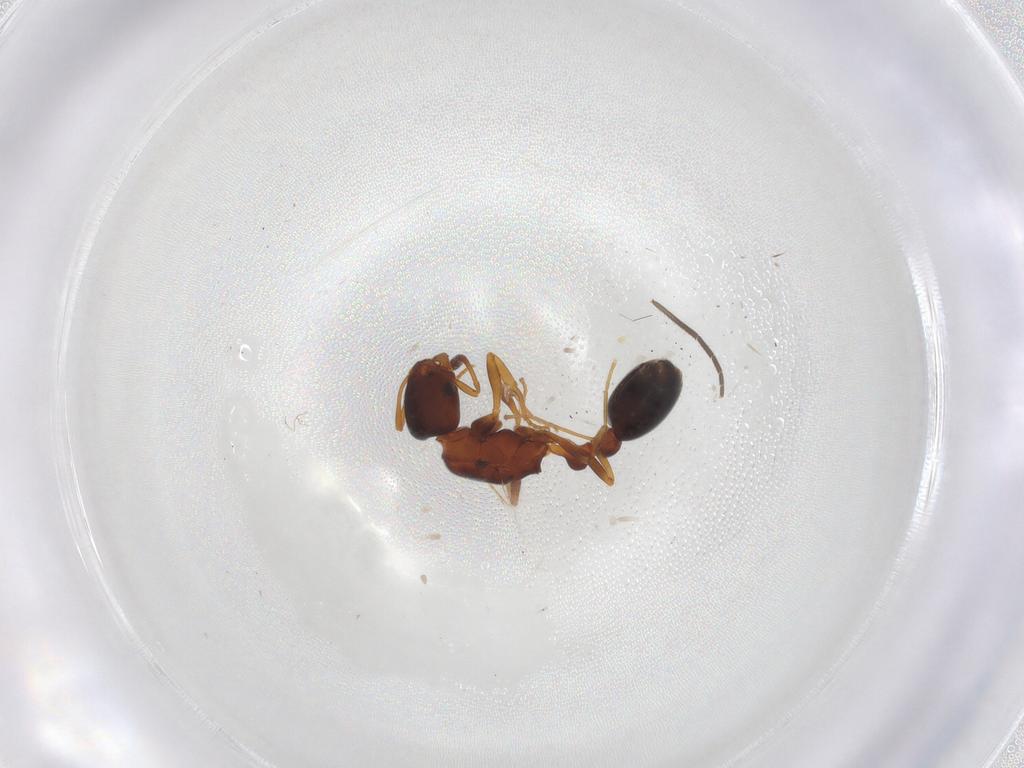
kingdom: Animalia
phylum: Arthropoda
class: Insecta
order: Hymenoptera
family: Formicidae
